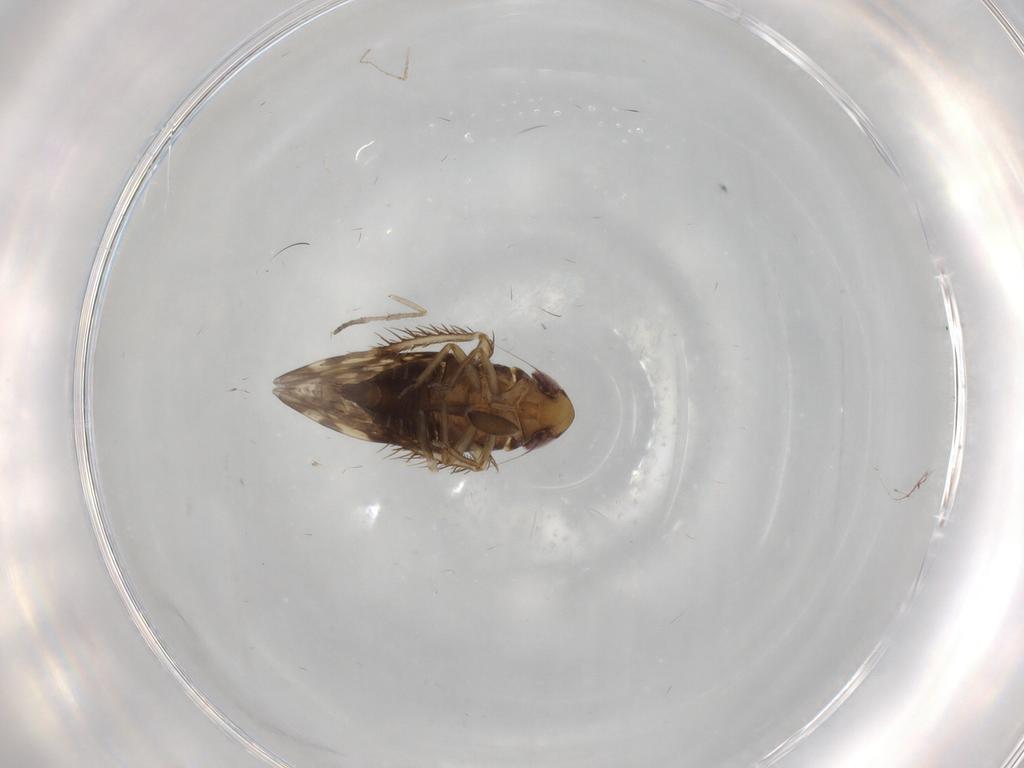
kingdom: Animalia
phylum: Arthropoda
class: Insecta
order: Hemiptera
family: Cicadellidae
